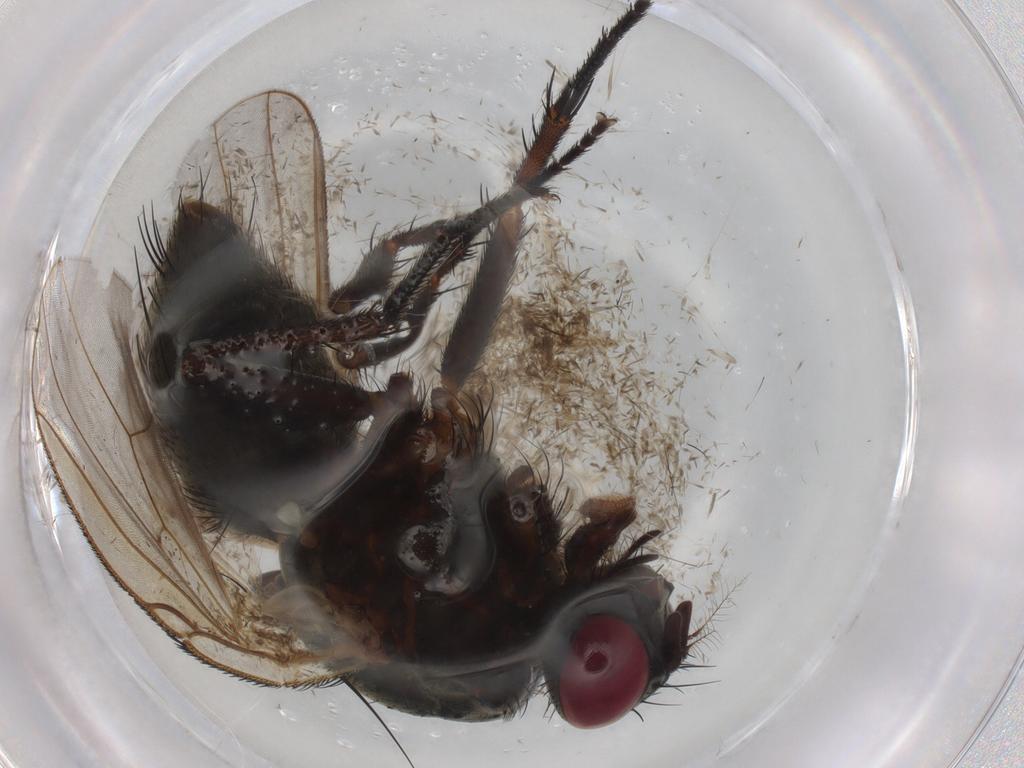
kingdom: Animalia
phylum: Arthropoda
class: Insecta
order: Diptera
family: Muscidae
